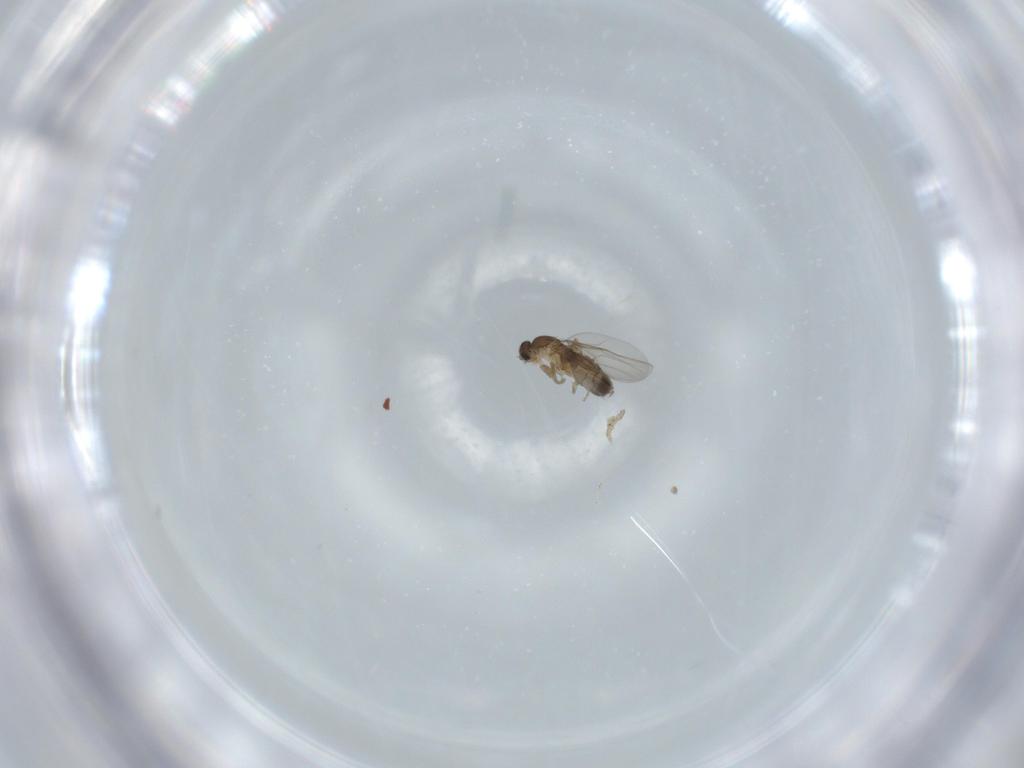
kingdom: Animalia
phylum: Arthropoda
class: Insecta
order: Diptera
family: Phoridae
